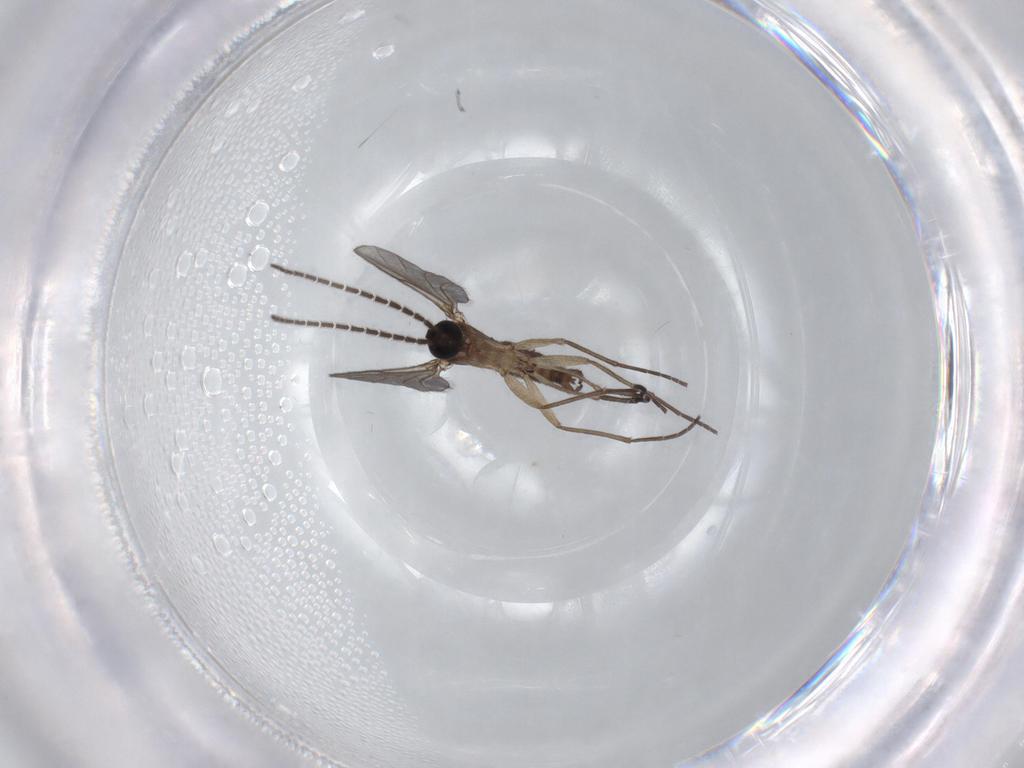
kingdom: Animalia
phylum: Arthropoda
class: Insecta
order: Diptera
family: Sciaridae
